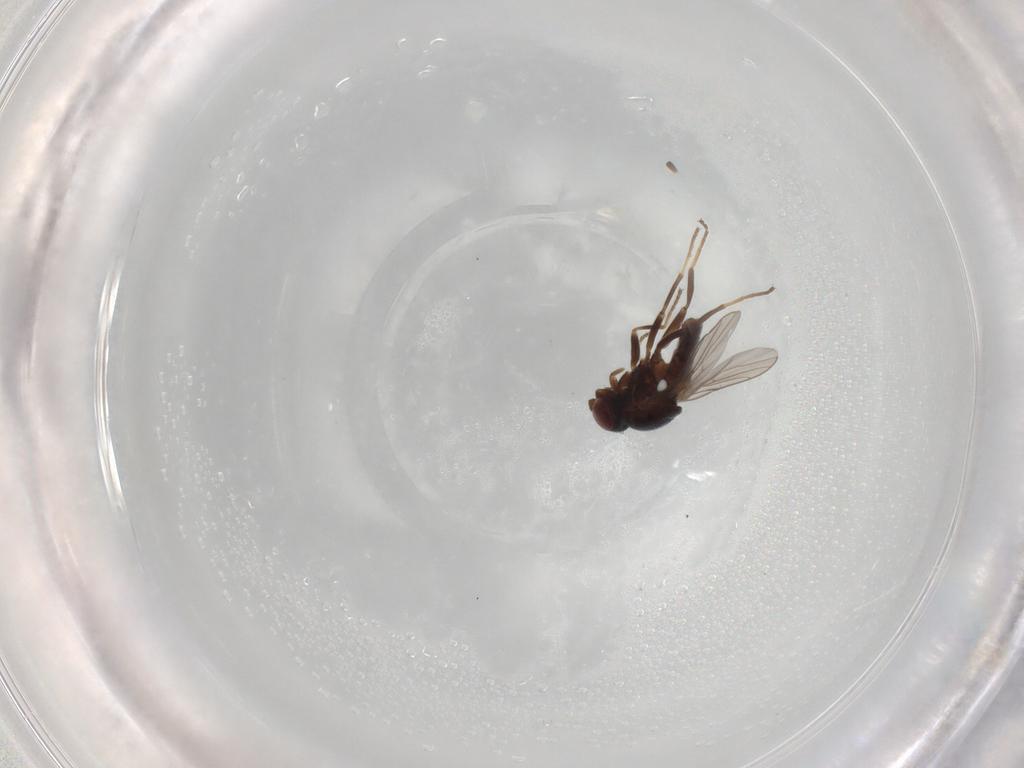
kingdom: Animalia
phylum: Arthropoda
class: Insecta
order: Diptera
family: Chloropidae
